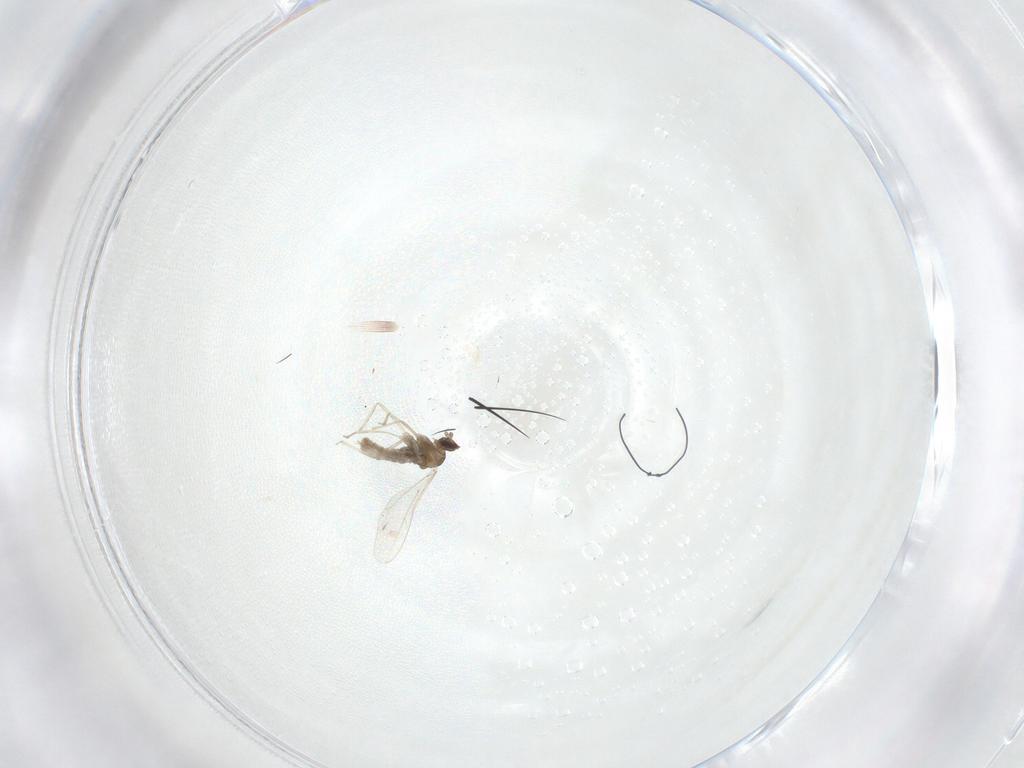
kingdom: Animalia
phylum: Arthropoda
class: Insecta
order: Diptera
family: Cecidomyiidae
